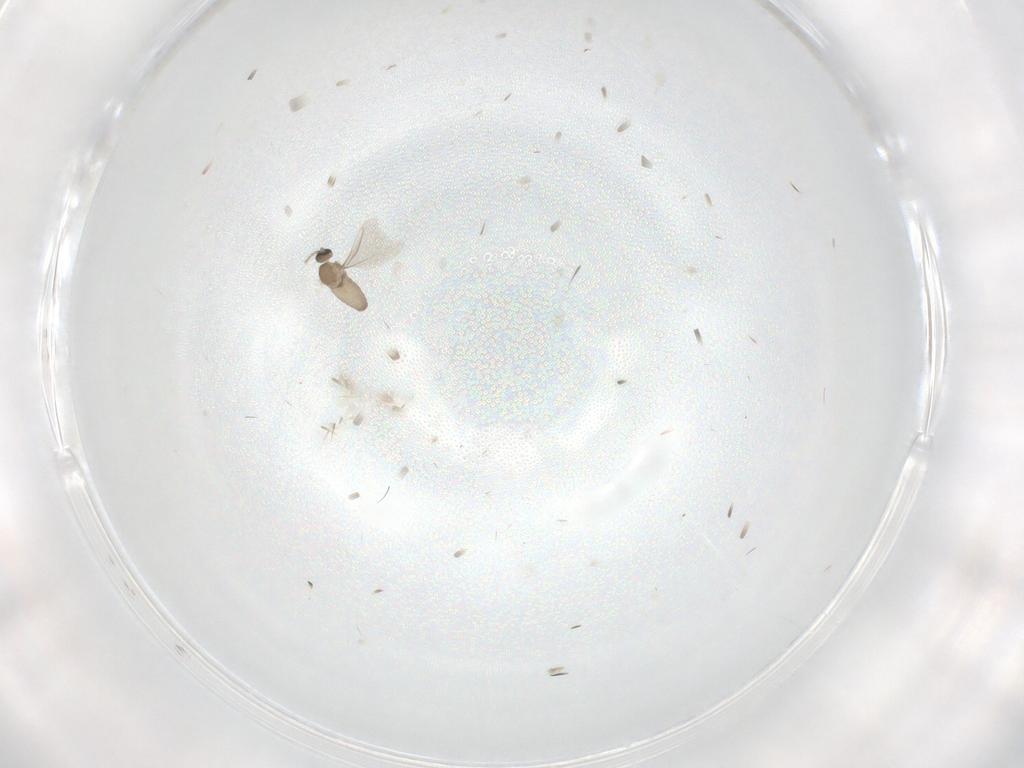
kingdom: Animalia
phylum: Arthropoda
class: Insecta
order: Diptera
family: Cecidomyiidae
